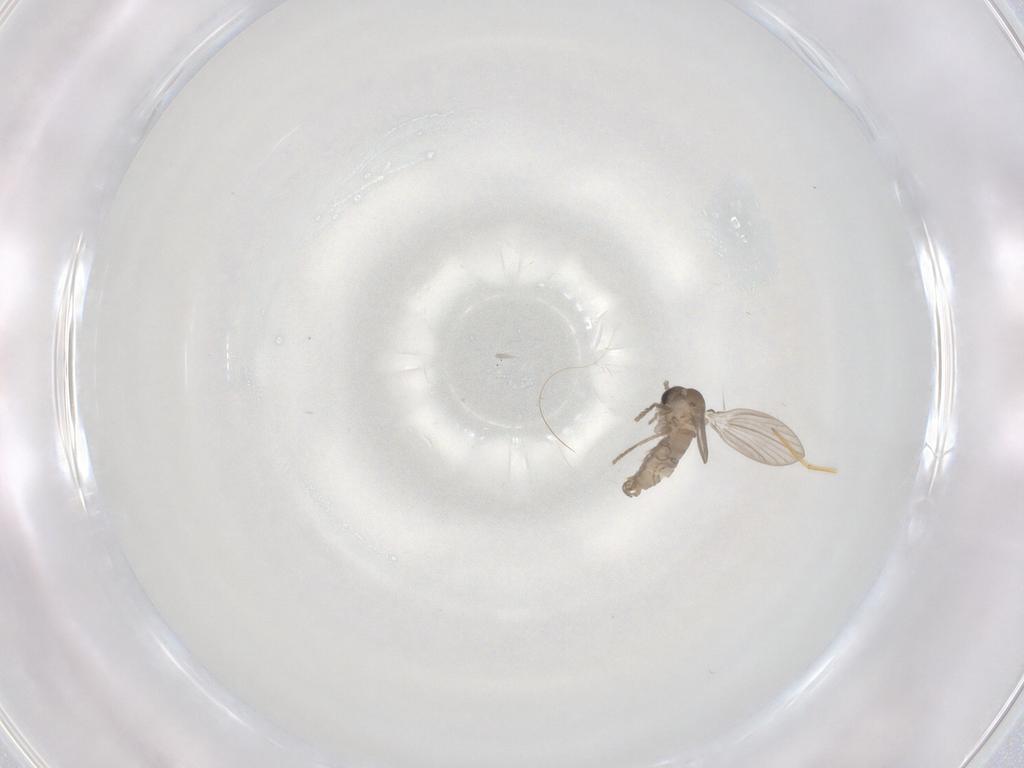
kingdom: Animalia
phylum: Arthropoda
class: Insecta
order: Diptera
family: Psychodidae
